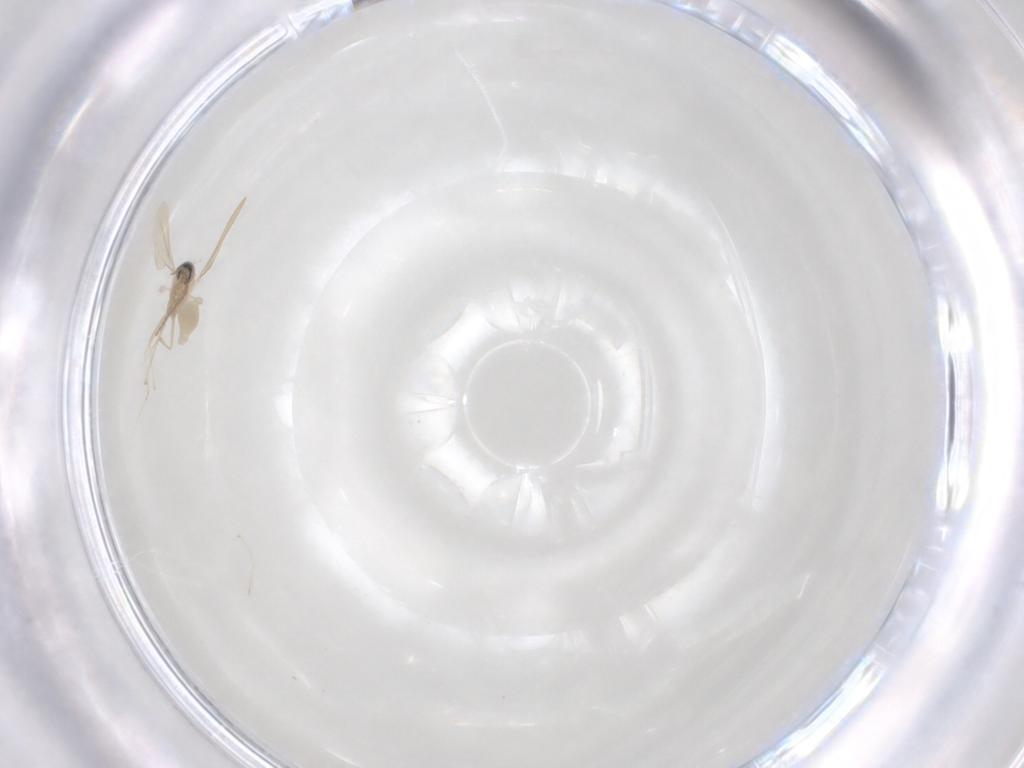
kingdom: Animalia
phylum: Arthropoda
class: Insecta
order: Diptera
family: Cecidomyiidae
